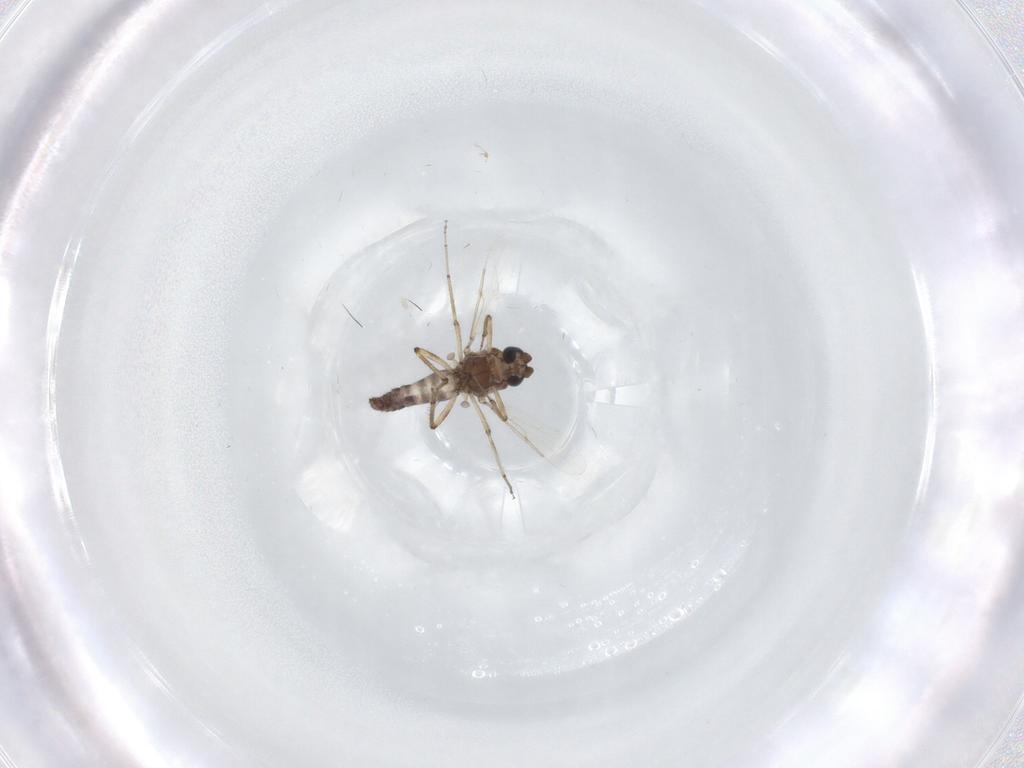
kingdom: Animalia
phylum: Arthropoda
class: Insecta
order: Diptera
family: Ceratopogonidae
